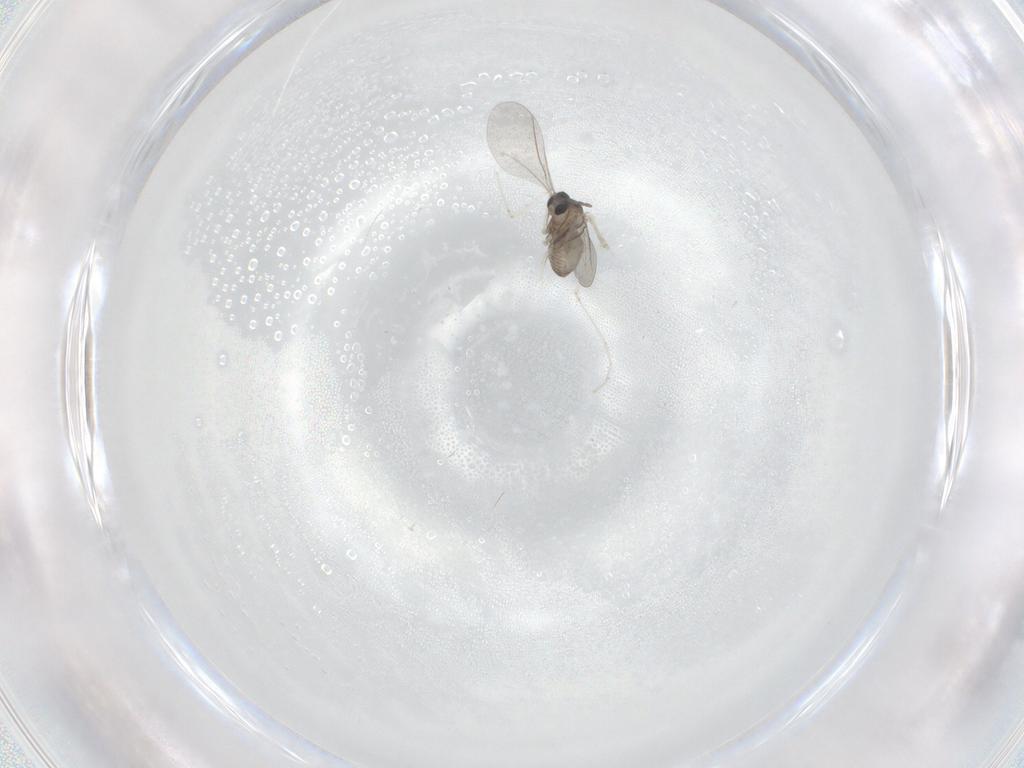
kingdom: Animalia
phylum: Arthropoda
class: Insecta
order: Diptera
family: Cecidomyiidae
